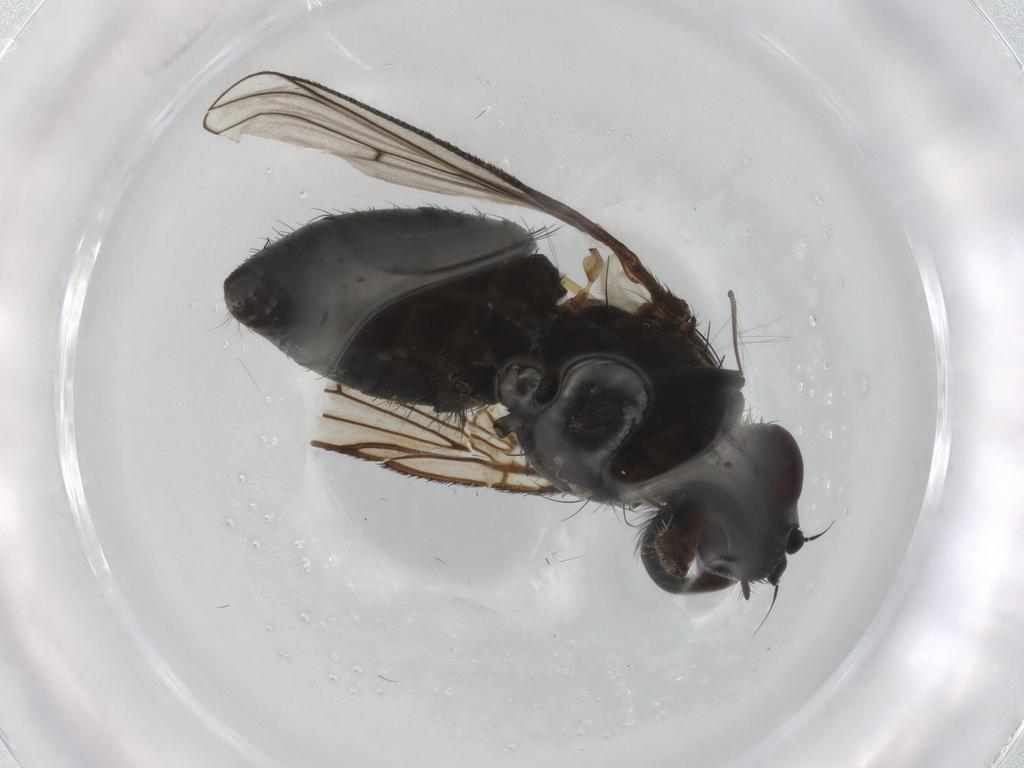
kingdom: Animalia
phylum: Arthropoda
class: Insecta
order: Diptera
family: Muscidae
